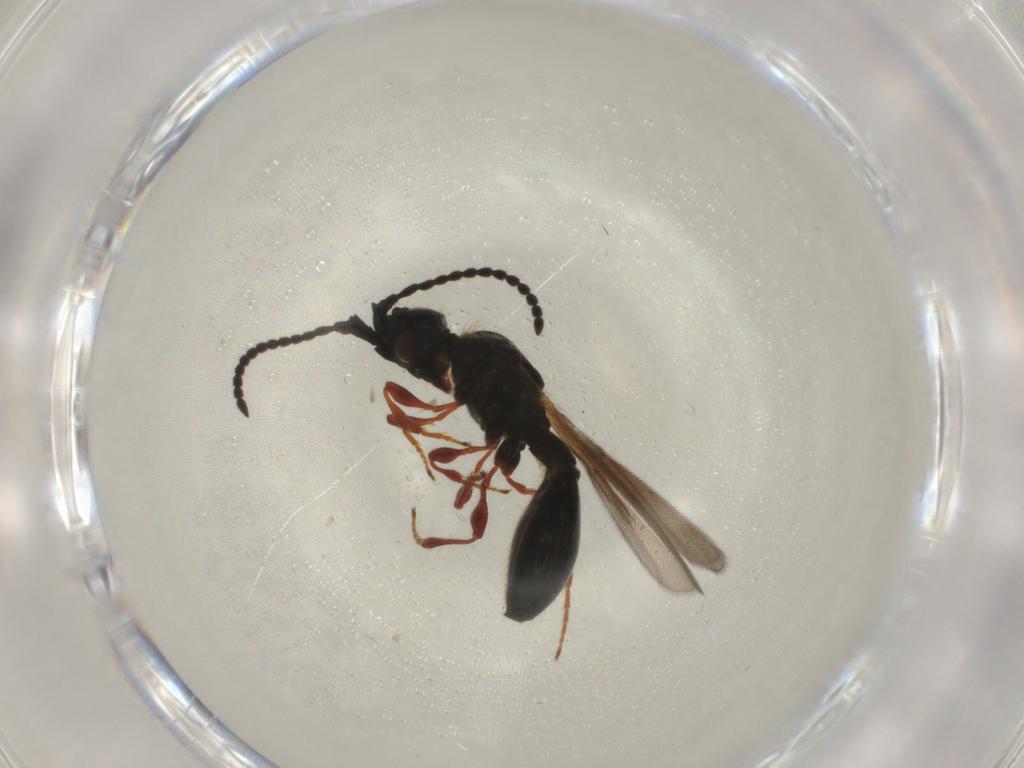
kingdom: Animalia
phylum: Arthropoda
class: Insecta
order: Hymenoptera
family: Diapriidae
